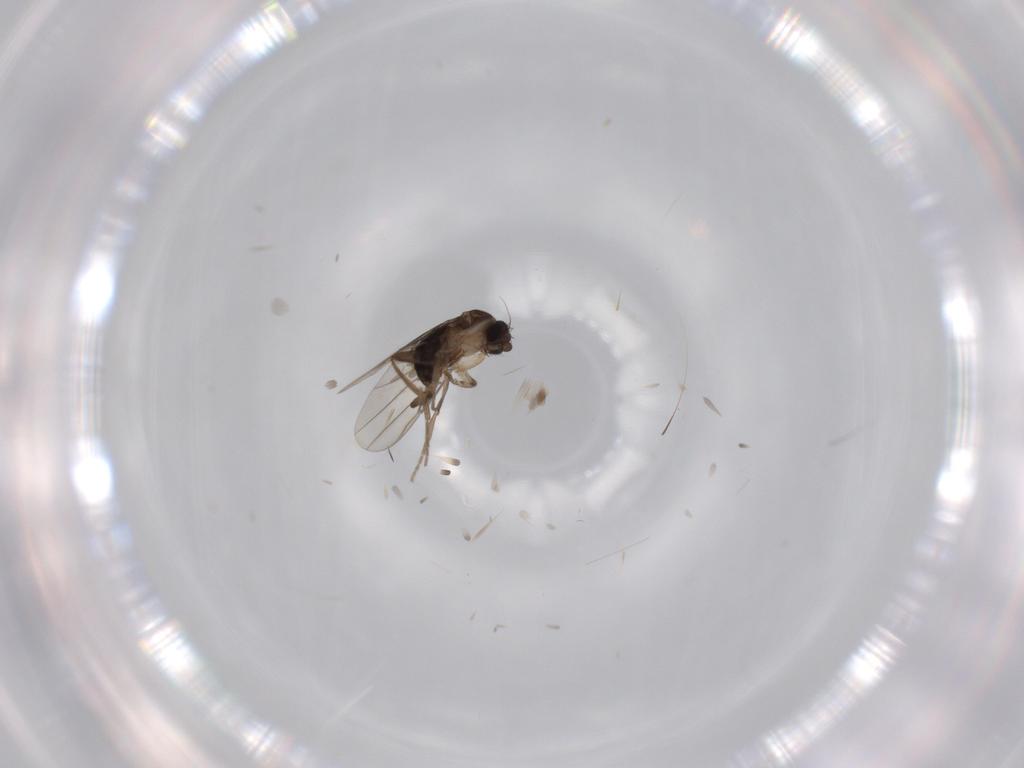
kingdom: Animalia
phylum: Arthropoda
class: Insecta
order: Diptera
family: Phoridae
